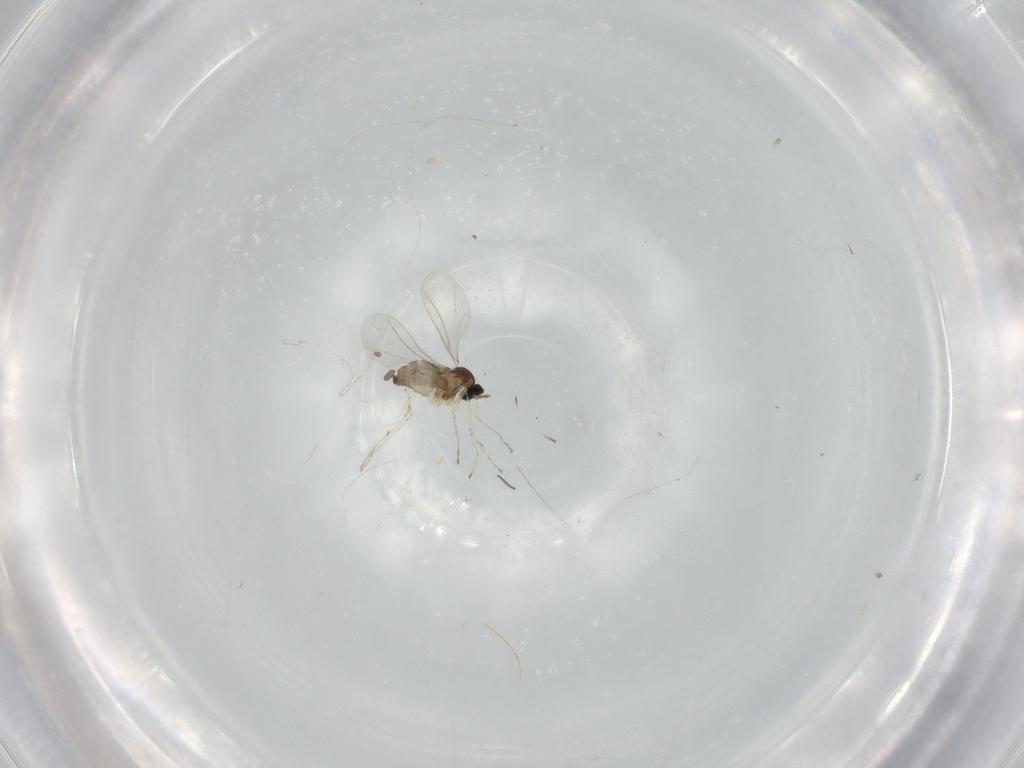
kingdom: Animalia
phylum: Arthropoda
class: Insecta
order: Diptera
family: Cecidomyiidae
